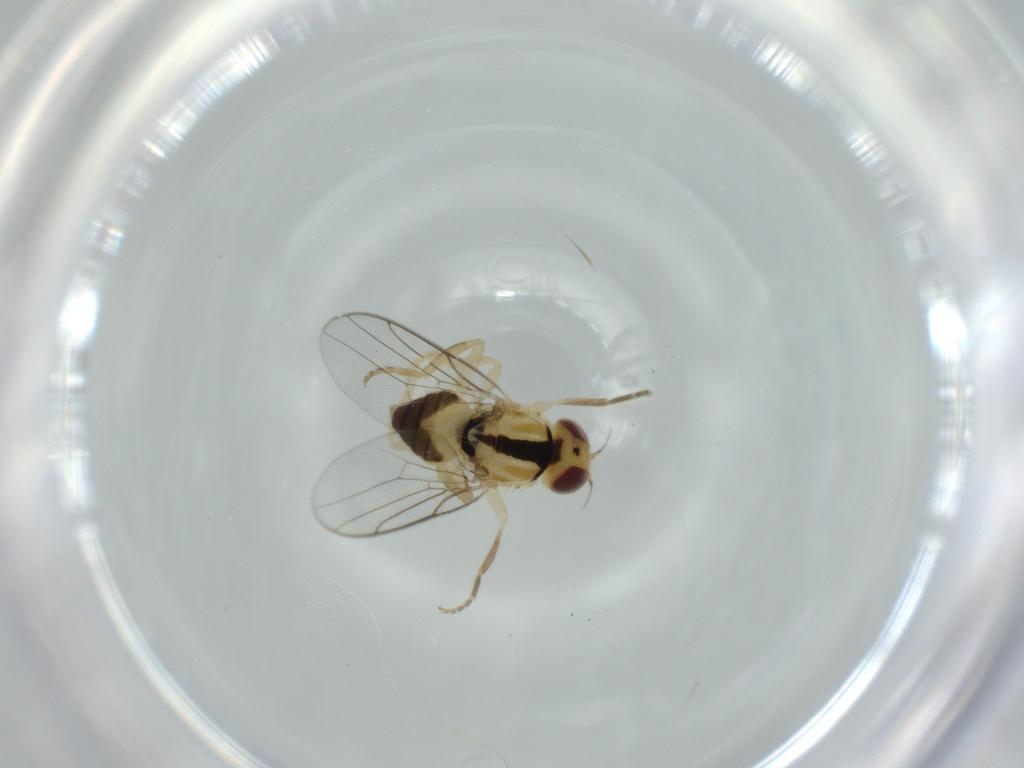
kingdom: Animalia
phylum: Arthropoda
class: Insecta
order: Diptera
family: Chloropidae
